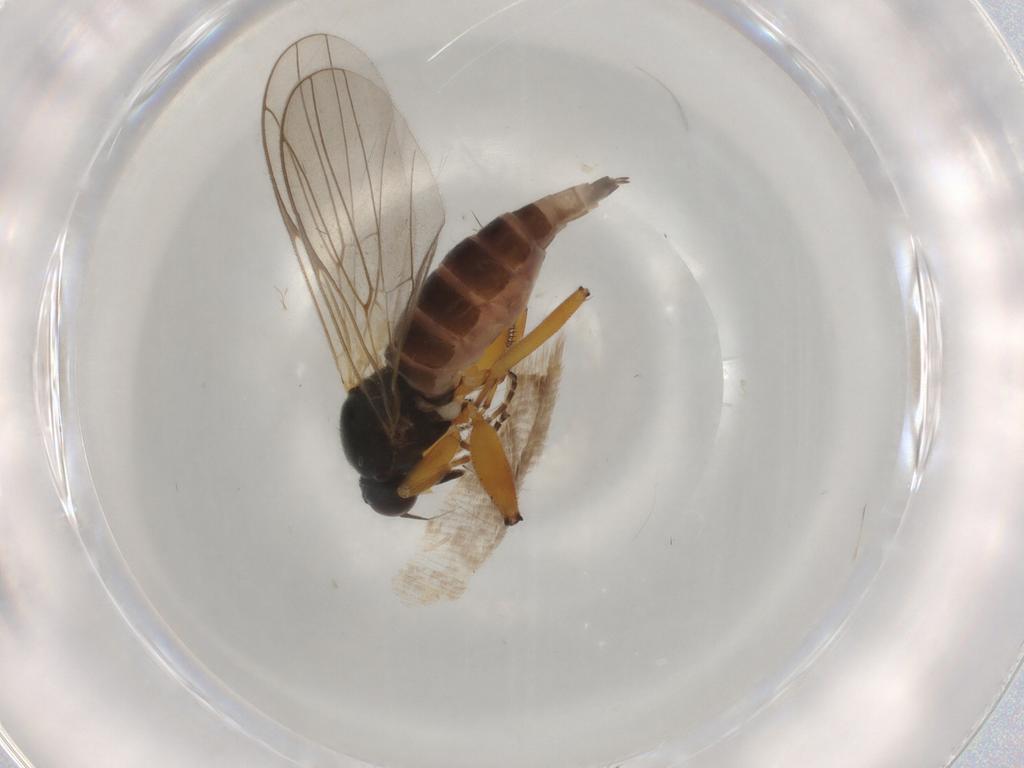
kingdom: Animalia
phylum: Arthropoda
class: Insecta
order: Diptera
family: Hybotidae
